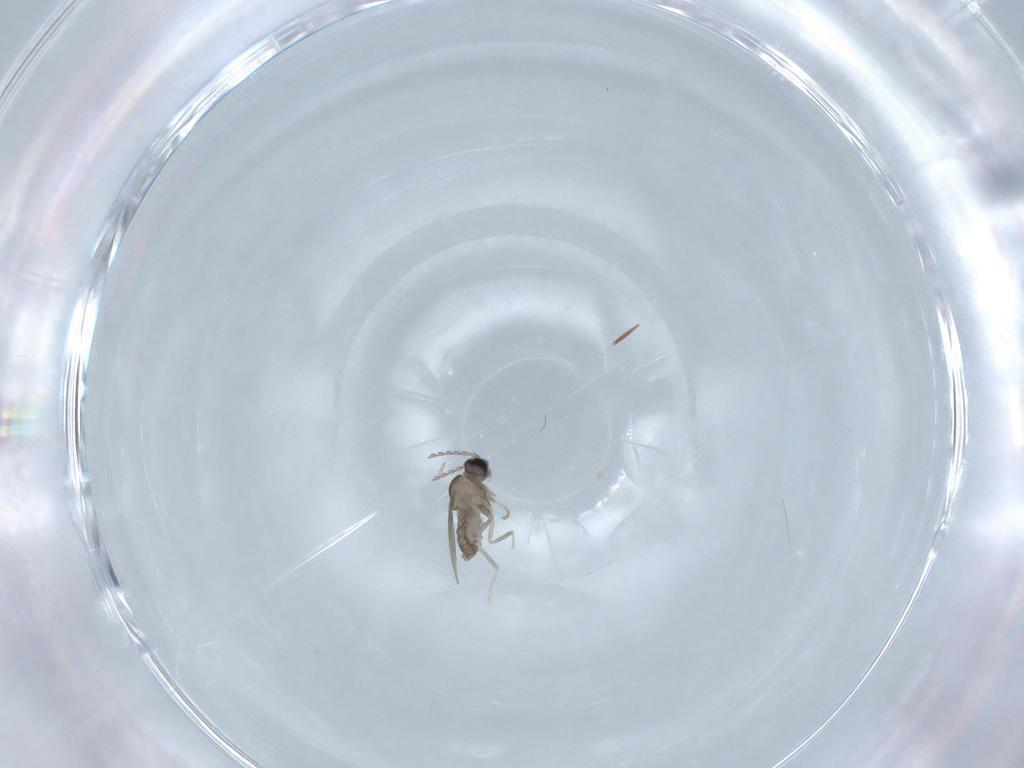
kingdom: Animalia
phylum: Arthropoda
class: Insecta
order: Diptera
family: Cecidomyiidae
